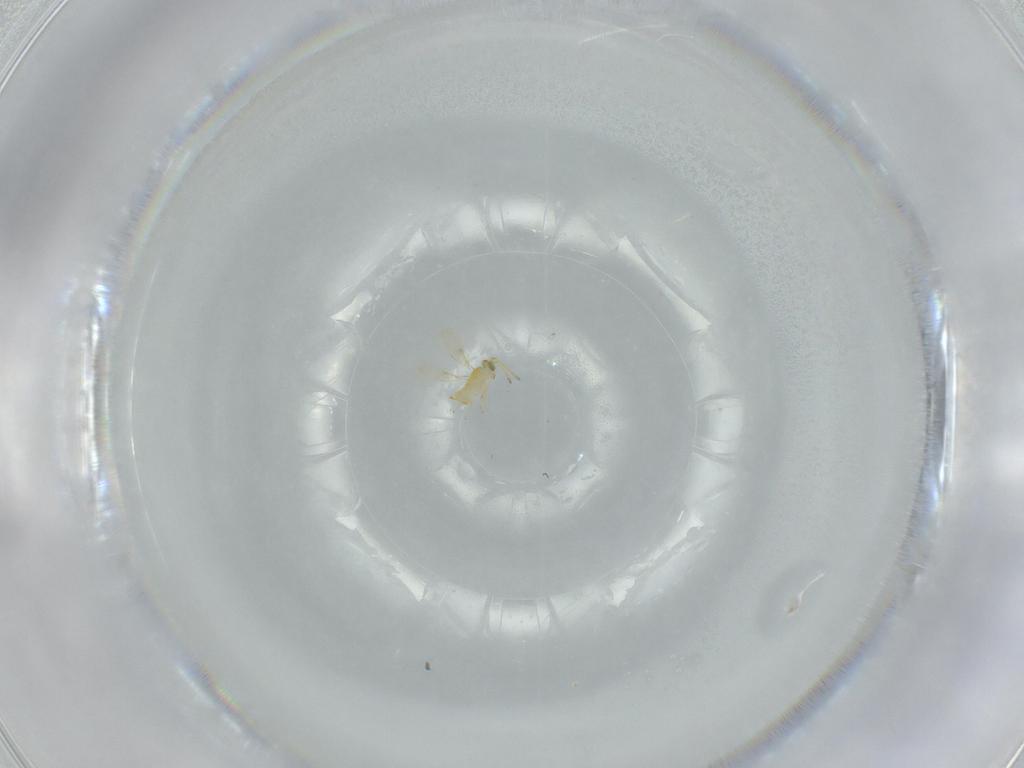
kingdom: Animalia
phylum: Arthropoda
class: Insecta
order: Hymenoptera
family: Aphelinidae
